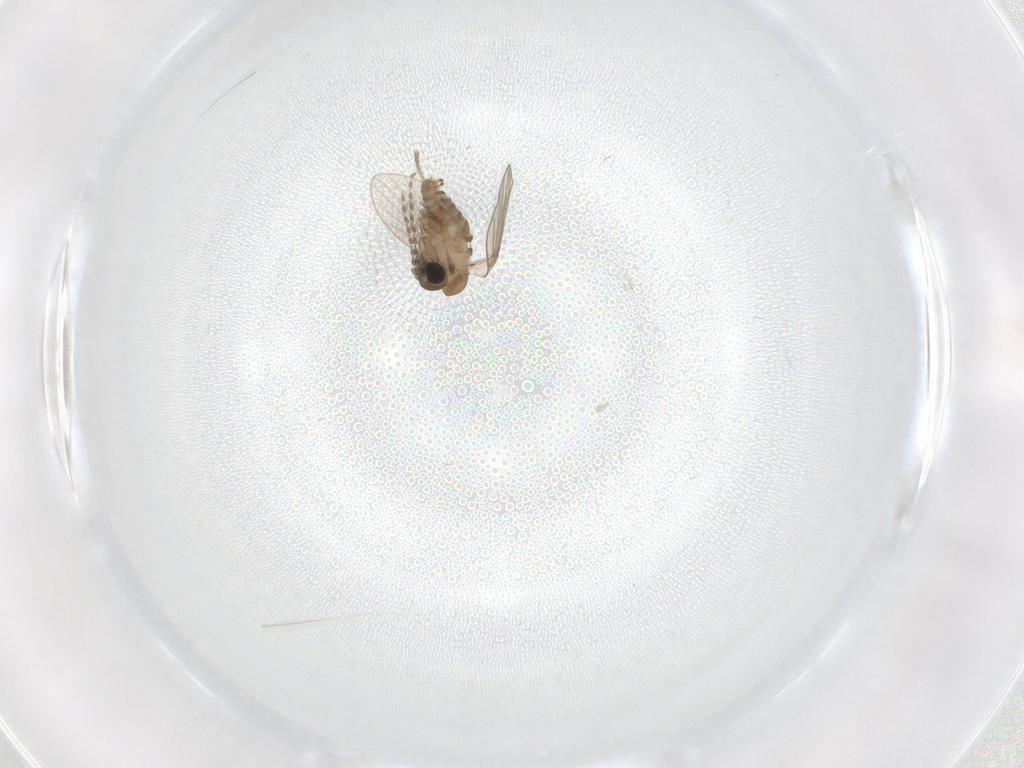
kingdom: Animalia
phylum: Arthropoda
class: Insecta
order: Diptera
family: Psychodidae
